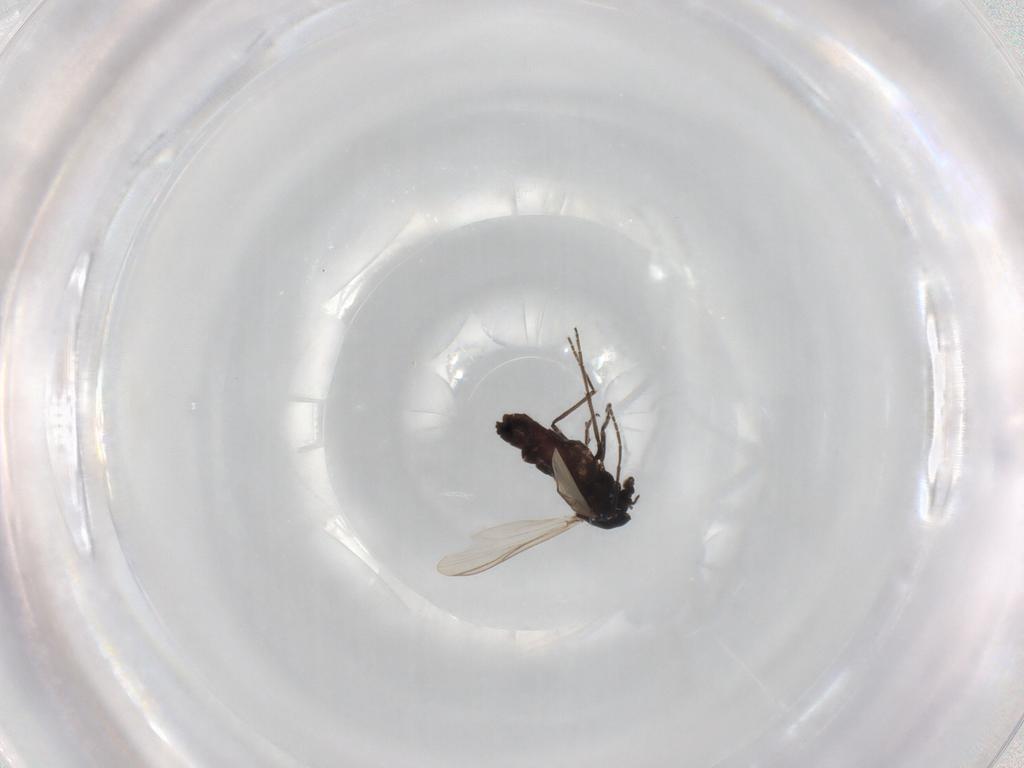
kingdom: Animalia
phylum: Arthropoda
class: Insecta
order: Diptera
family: Chironomidae
